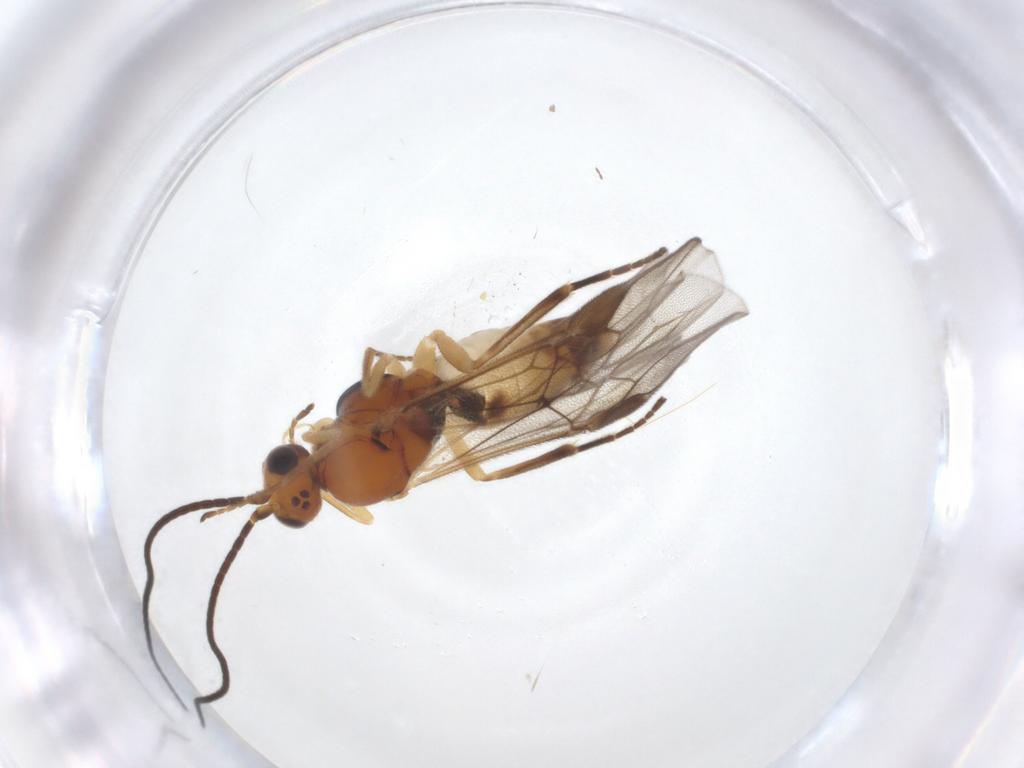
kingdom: Animalia
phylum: Arthropoda
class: Insecta
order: Hymenoptera
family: Braconidae
